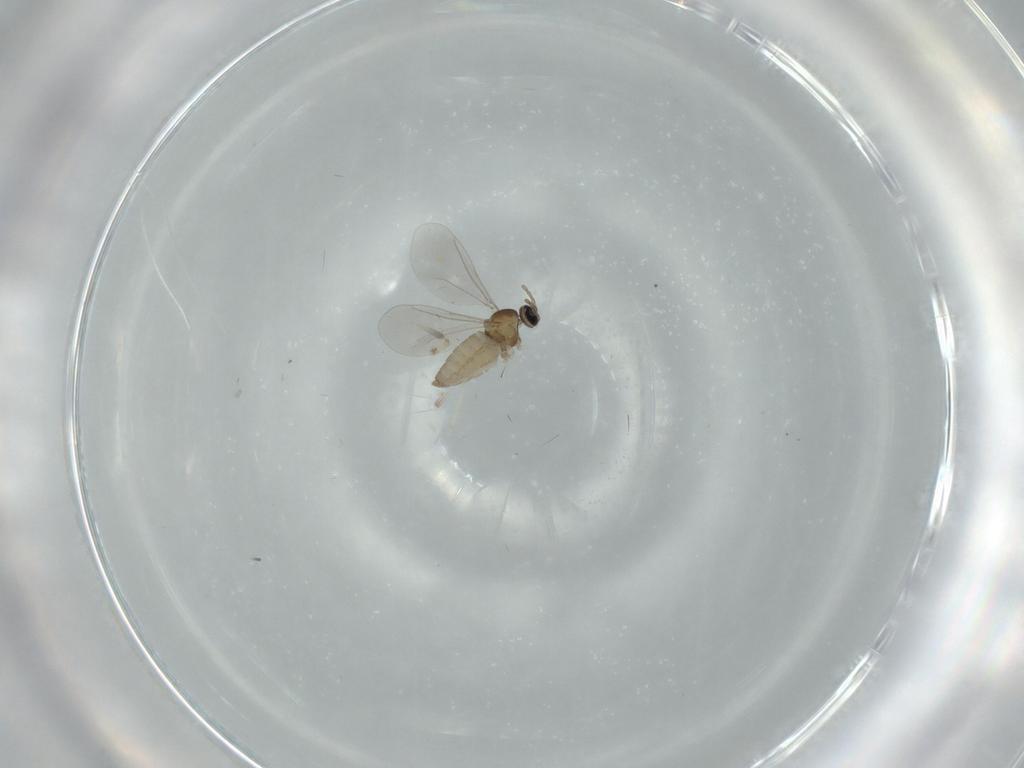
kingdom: Animalia
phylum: Arthropoda
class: Insecta
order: Diptera
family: Cecidomyiidae
